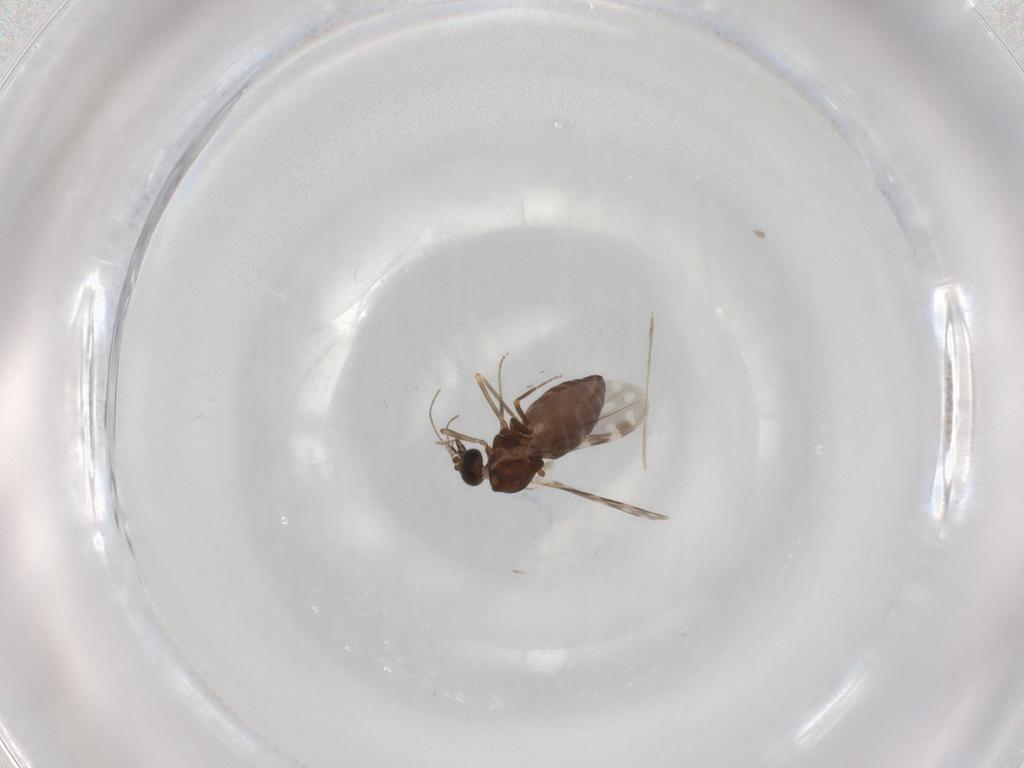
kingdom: Animalia
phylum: Arthropoda
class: Insecta
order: Diptera
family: Ceratopogonidae
